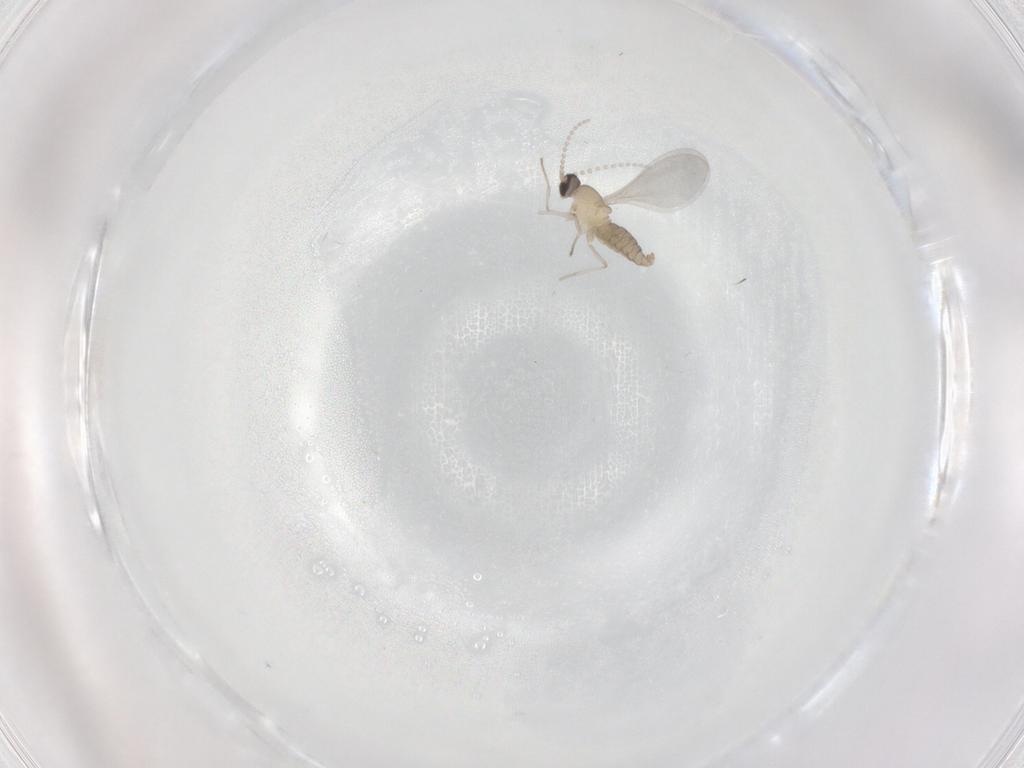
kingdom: Animalia
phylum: Arthropoda
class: Insecta
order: Diptera
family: Cecidomyiidae
